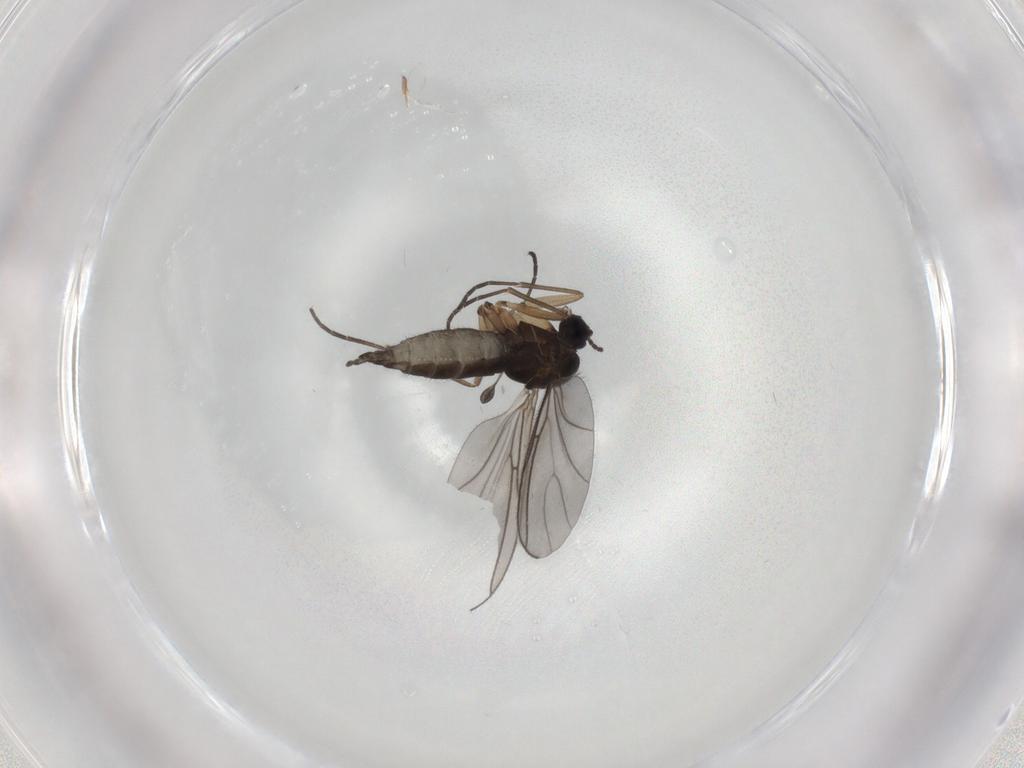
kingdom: Animalia
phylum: Arthropoda
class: Insecta
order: Diptera
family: Sciaridae
